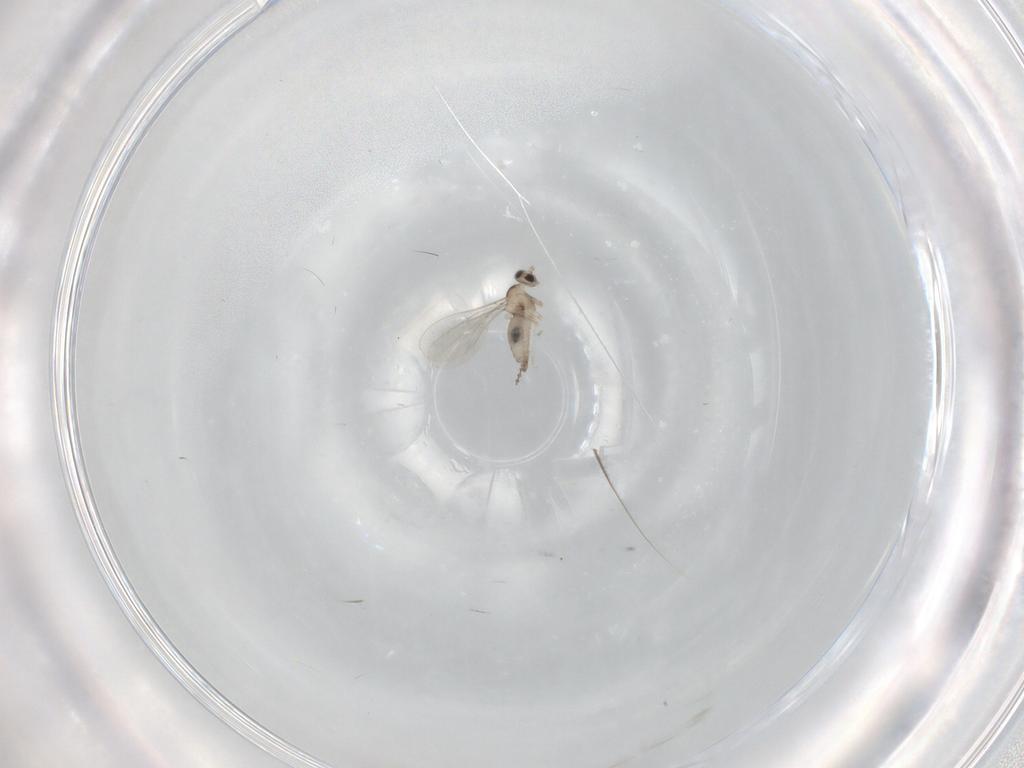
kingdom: Animalia
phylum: Arthropoda
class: Insecta
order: Diptera
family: Cecidomyiidae
